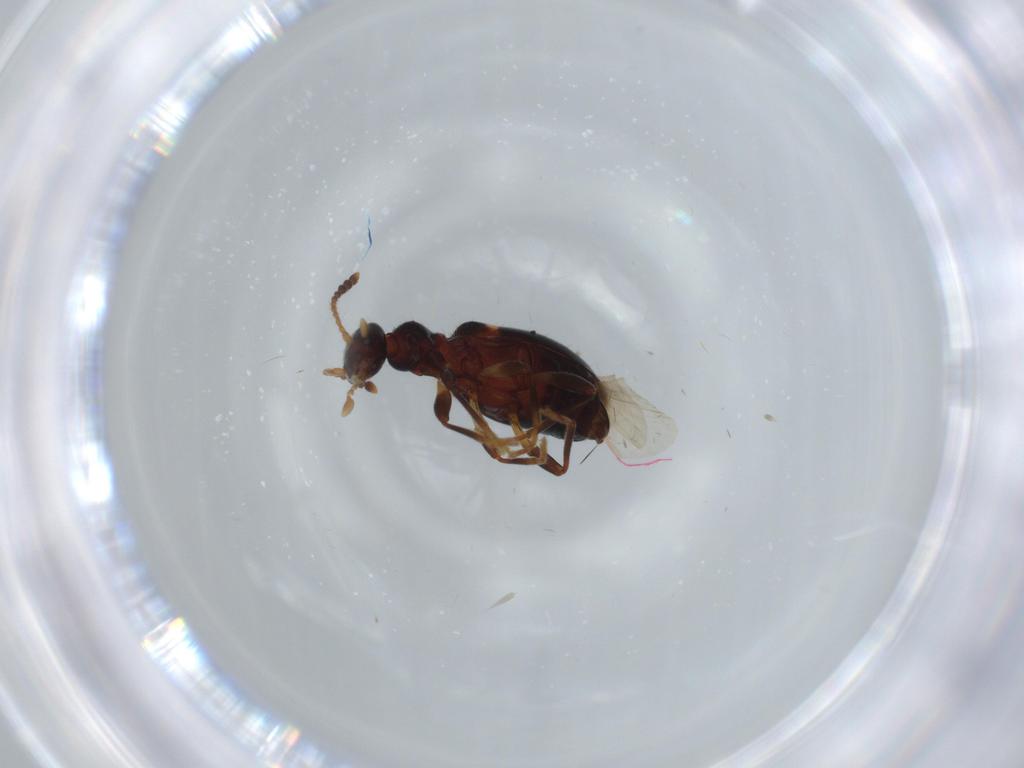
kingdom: Animalia
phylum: Arthropoda
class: Insecta
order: Coleoptera
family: Anthicidae
